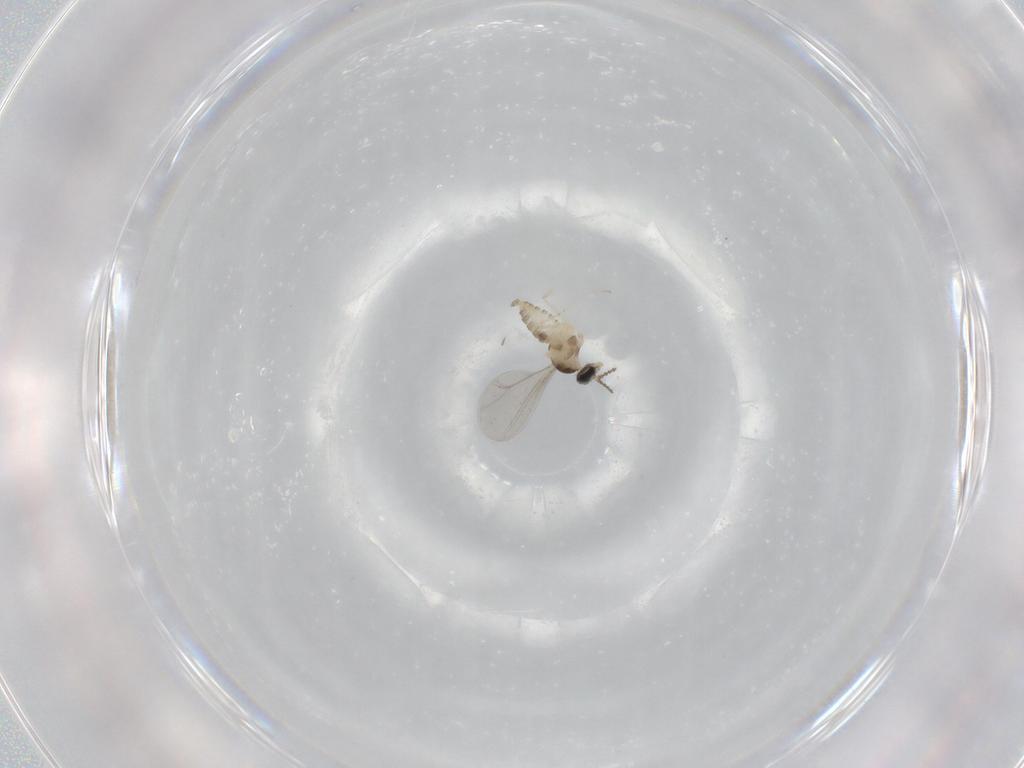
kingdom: Animalia
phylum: Arthropoda
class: Insecta
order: Diptera
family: Cecidomyiidae
